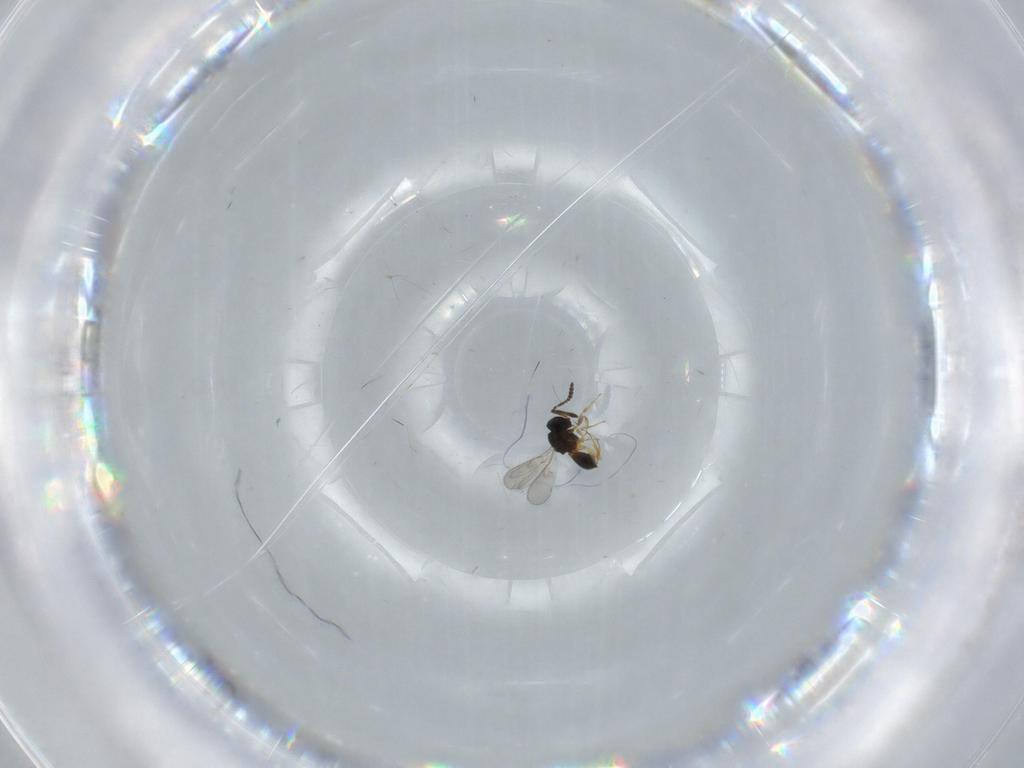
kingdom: Animalia
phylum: Arthropoda
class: Insecta
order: Hymenoptera
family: Scelionidae
